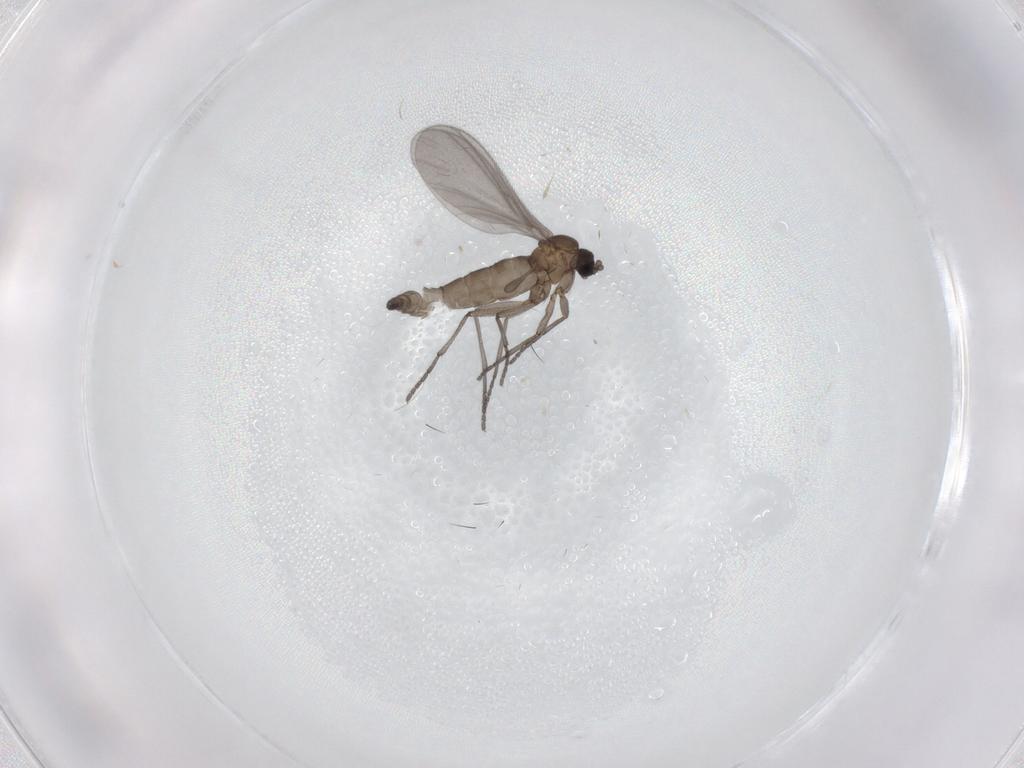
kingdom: Animalia
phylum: Arthropoda
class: Insecta
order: Diptera
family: Sciaridae
